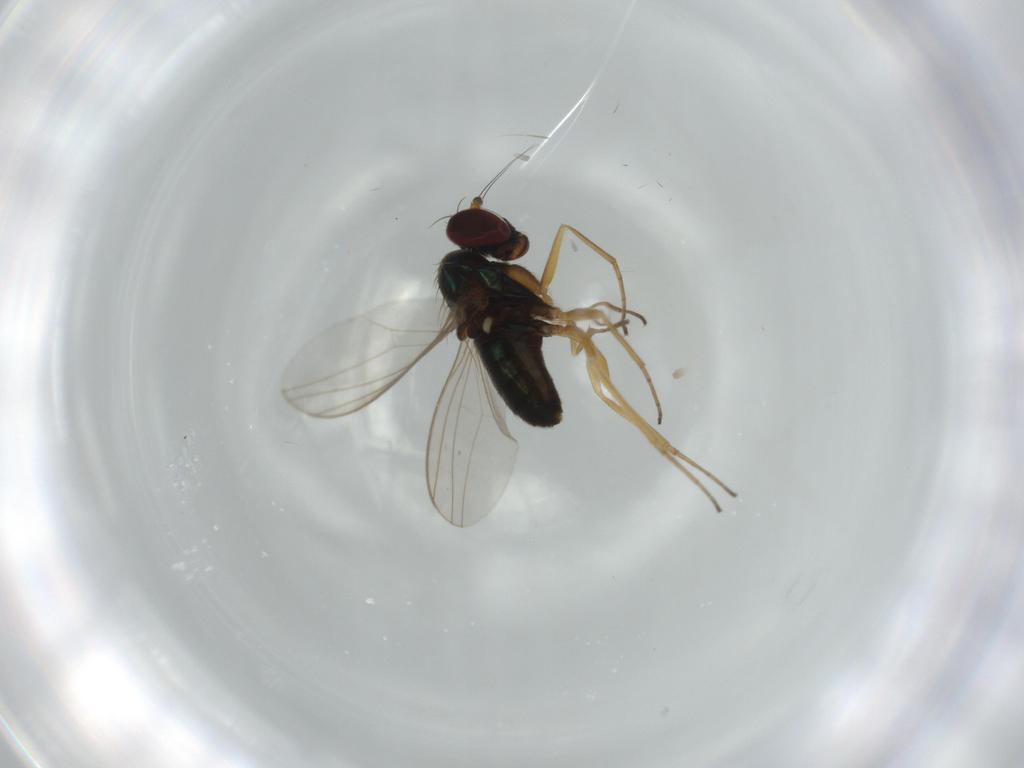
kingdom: Animalia
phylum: Arthropoda
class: Insecta
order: Diptera
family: Dolichopodidae
